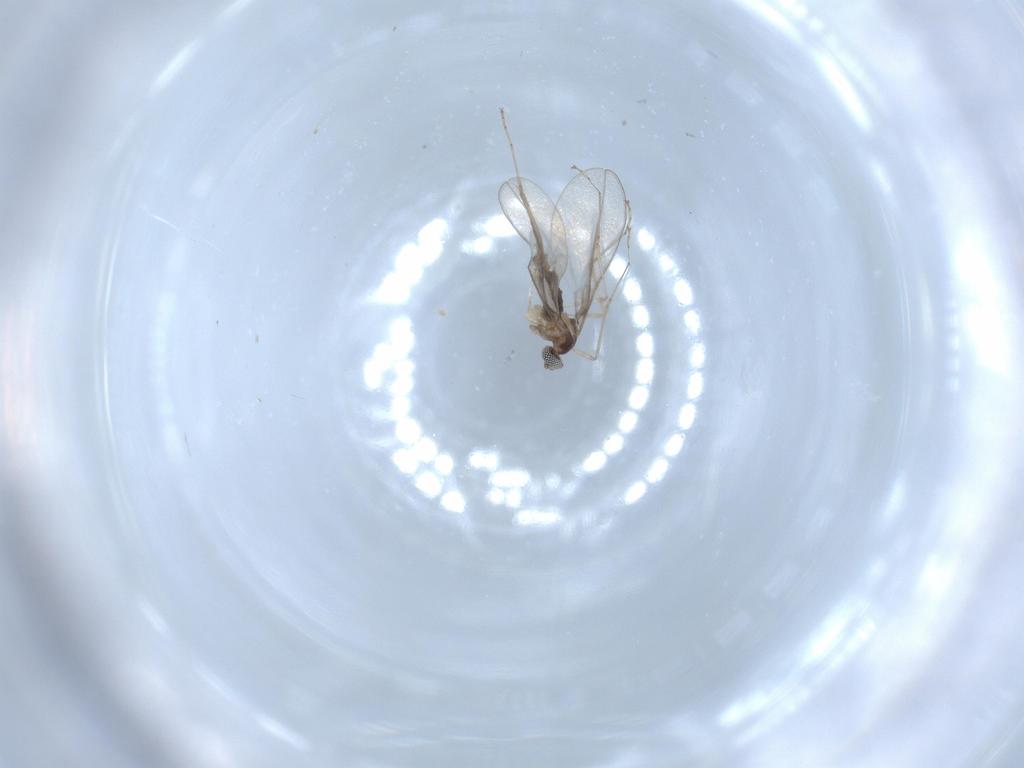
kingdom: Animalia
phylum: Arthropoda
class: Insecta
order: Diptera
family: Cecidomyiidae
